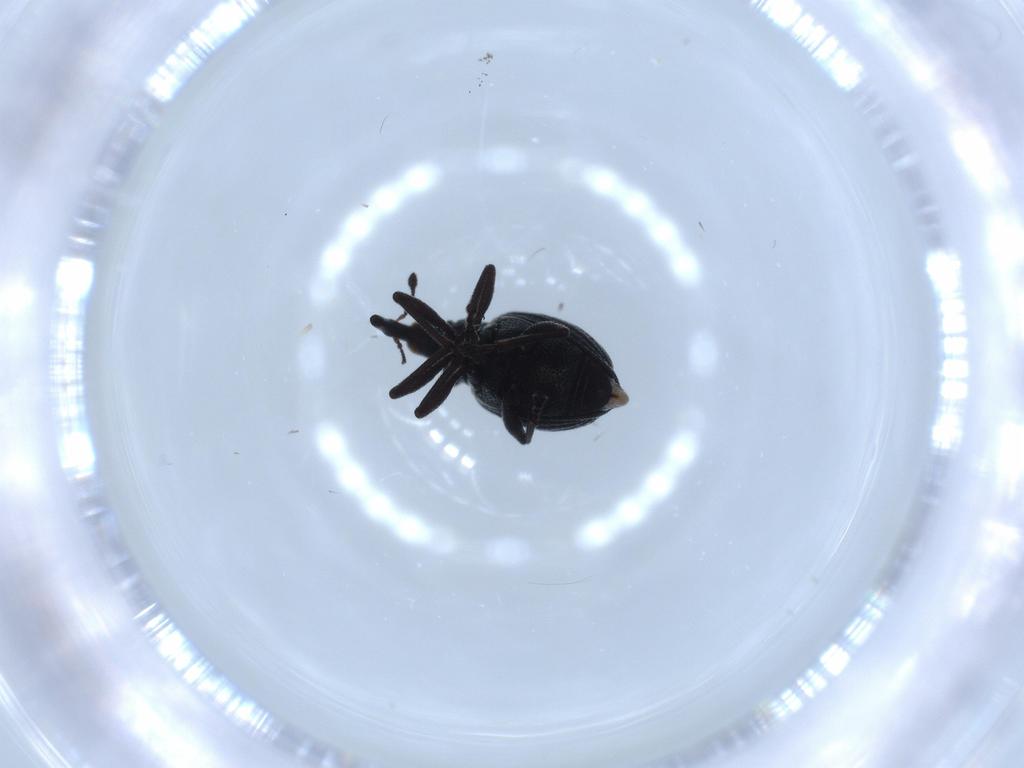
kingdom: Animalia
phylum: Arthropoda
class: Insecta
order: Coleoptera
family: Brentidae
